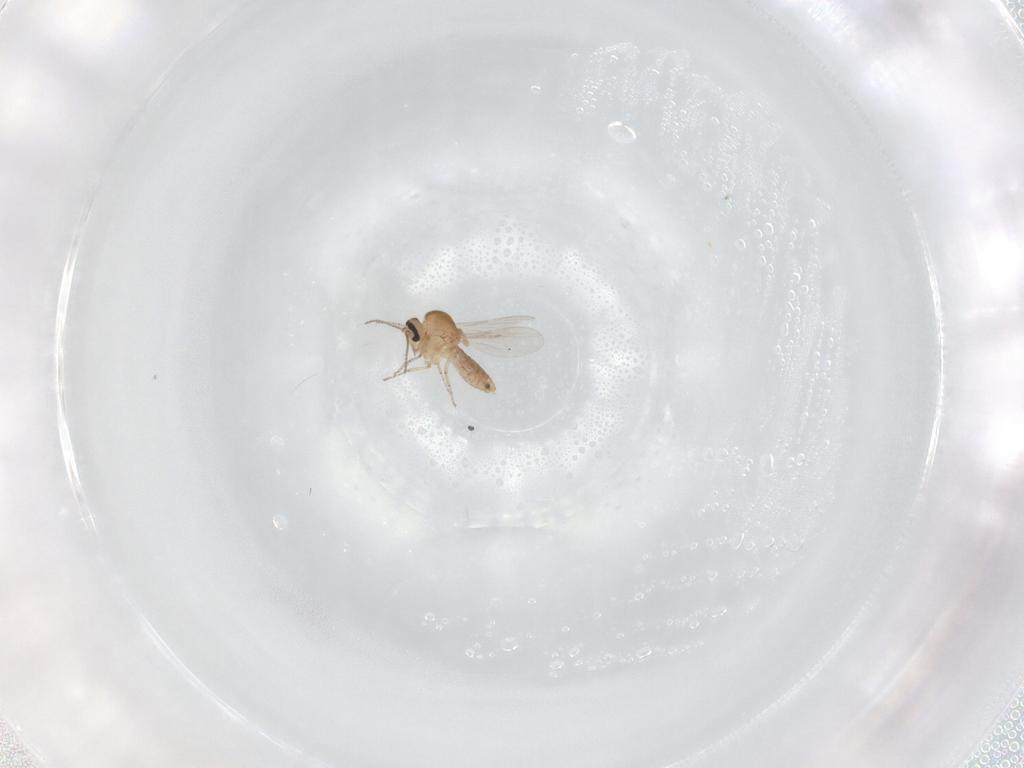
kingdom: Animalia
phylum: Arthropoda
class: Insecta
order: Diptera
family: Ceratopogonidae
